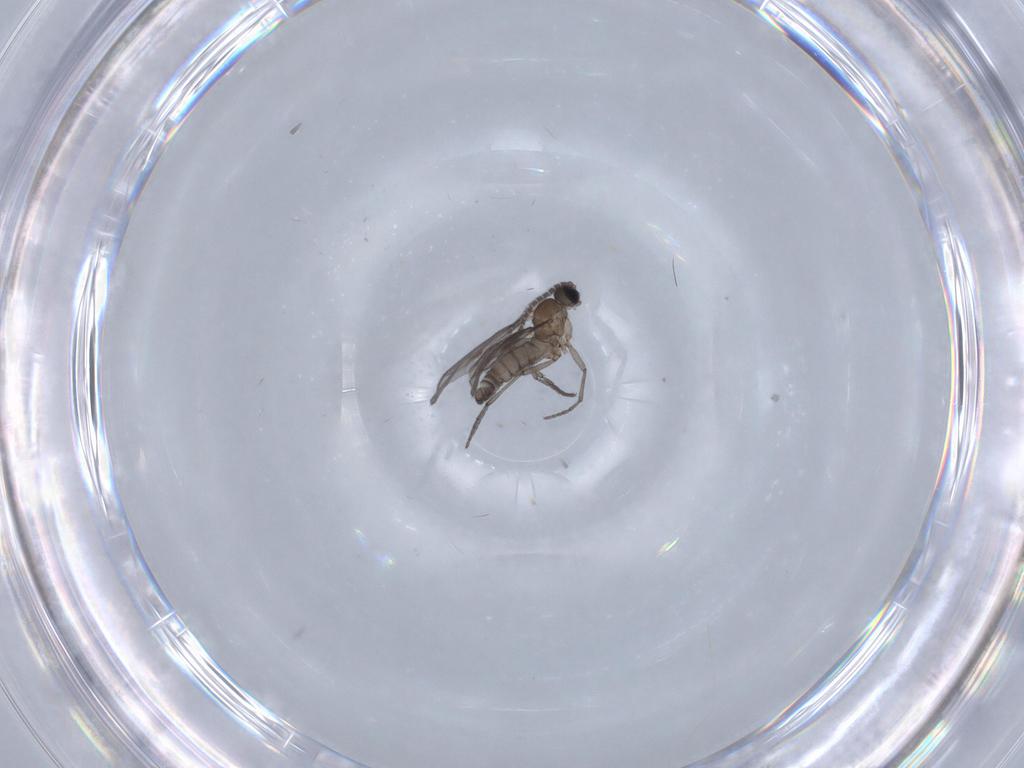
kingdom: Animalia
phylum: Arthropoda
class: Insecta
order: Diptera
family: Sciaridae
